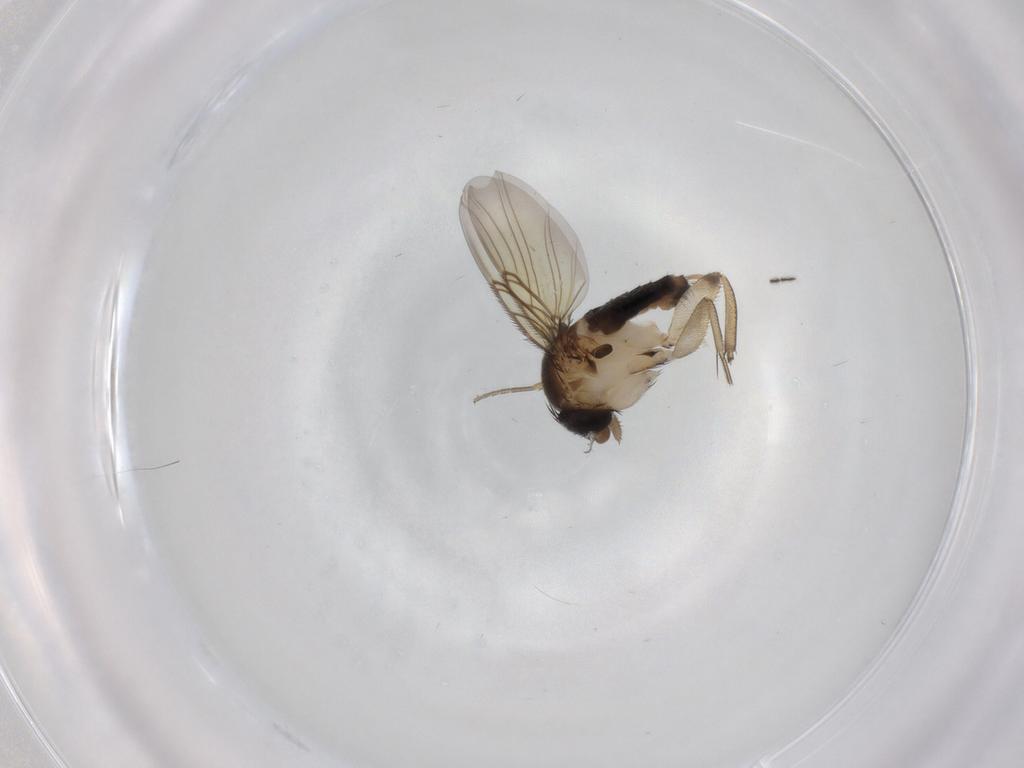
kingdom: Animalia
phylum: Arthropoda
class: Insecta
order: Diptera
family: Phoridae
